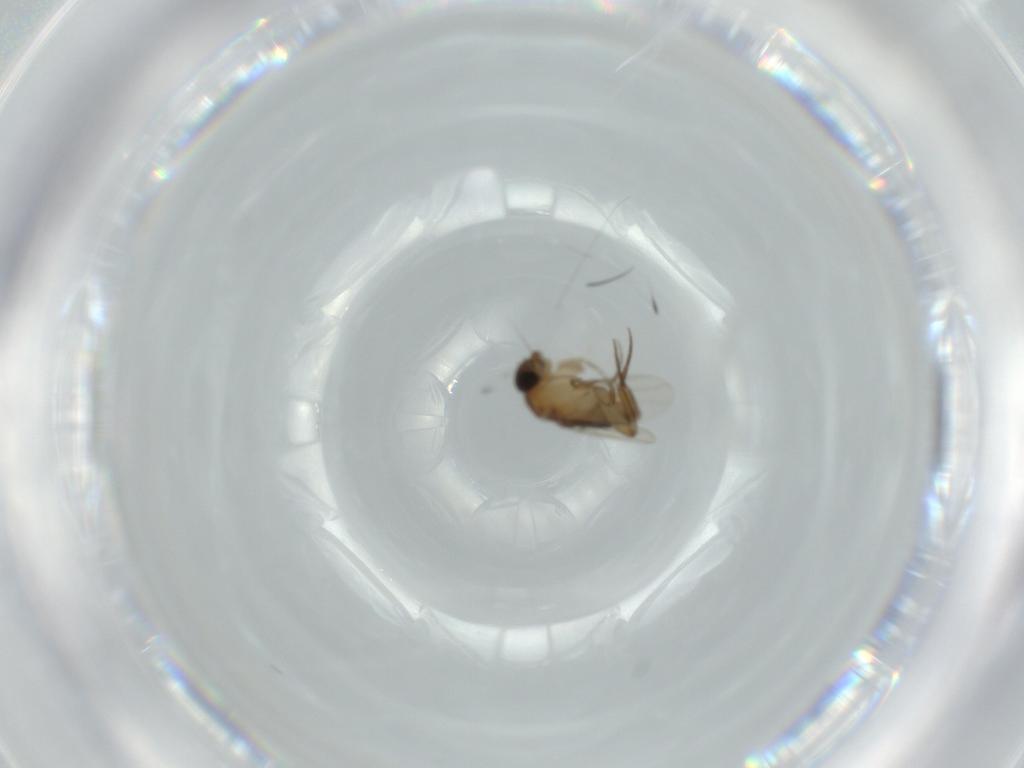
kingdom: Animalia
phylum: Arthropoda
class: Insecta
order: Diptera
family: Phoridae
